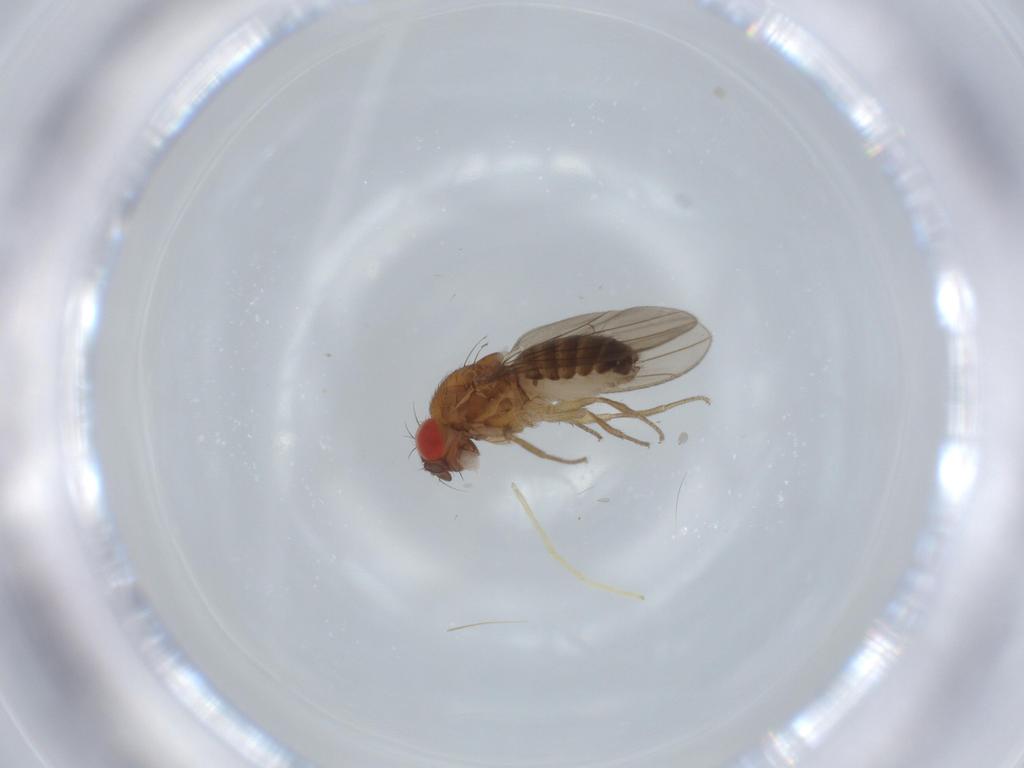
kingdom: Animalia
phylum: Arthropoda
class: Insecta
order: Diptera
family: Drosophilidae
